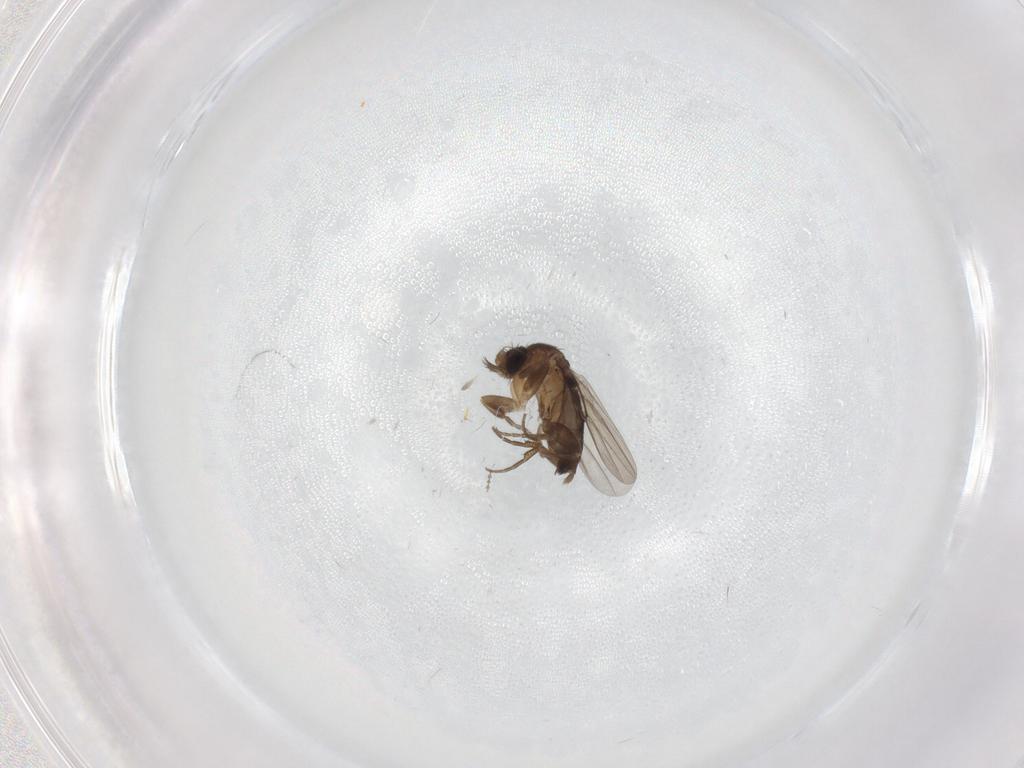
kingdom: Animalia
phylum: Arthropoda
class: Insecta
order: Diptera
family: Phoridae
